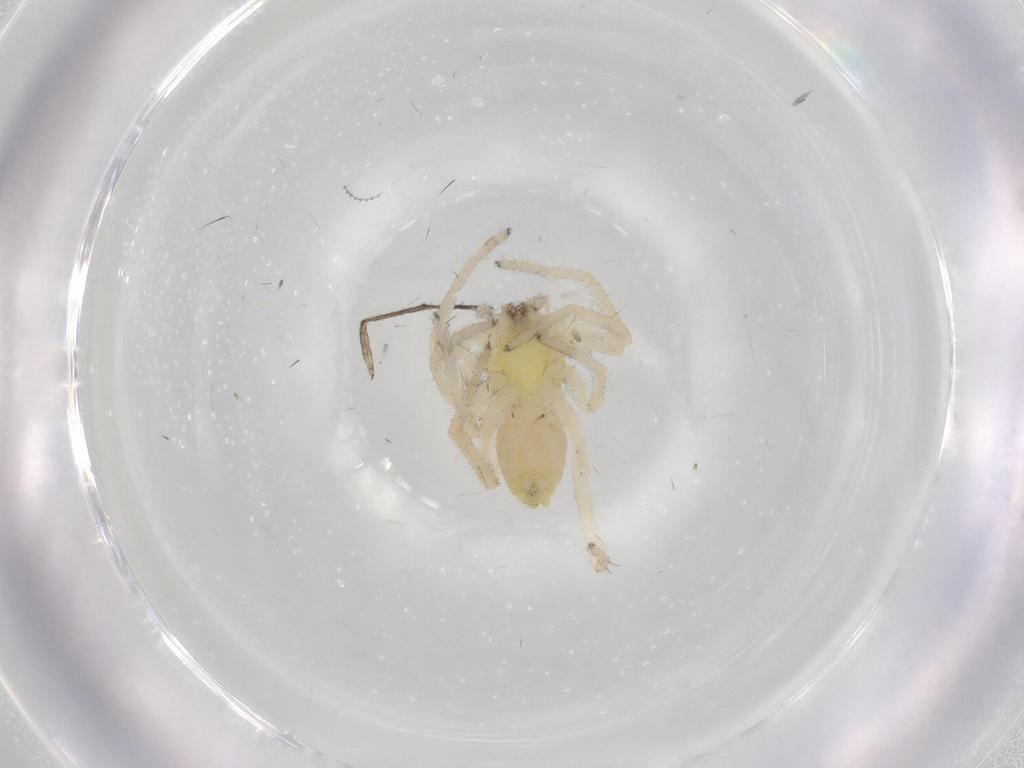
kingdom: Animalia
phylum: Arthropoda
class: Arachnida
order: Araneae
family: Anyphaenidae
